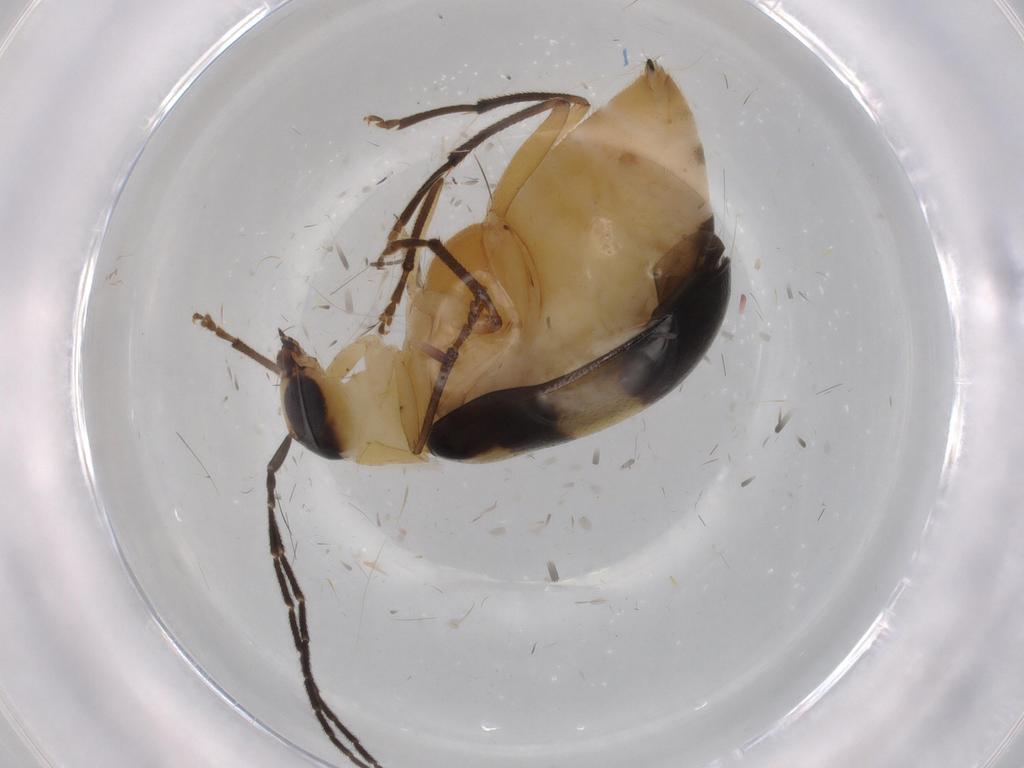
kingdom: Animalia
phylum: Arthropoda
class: Insecta
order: Coleoptera
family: Chrysomelidae
